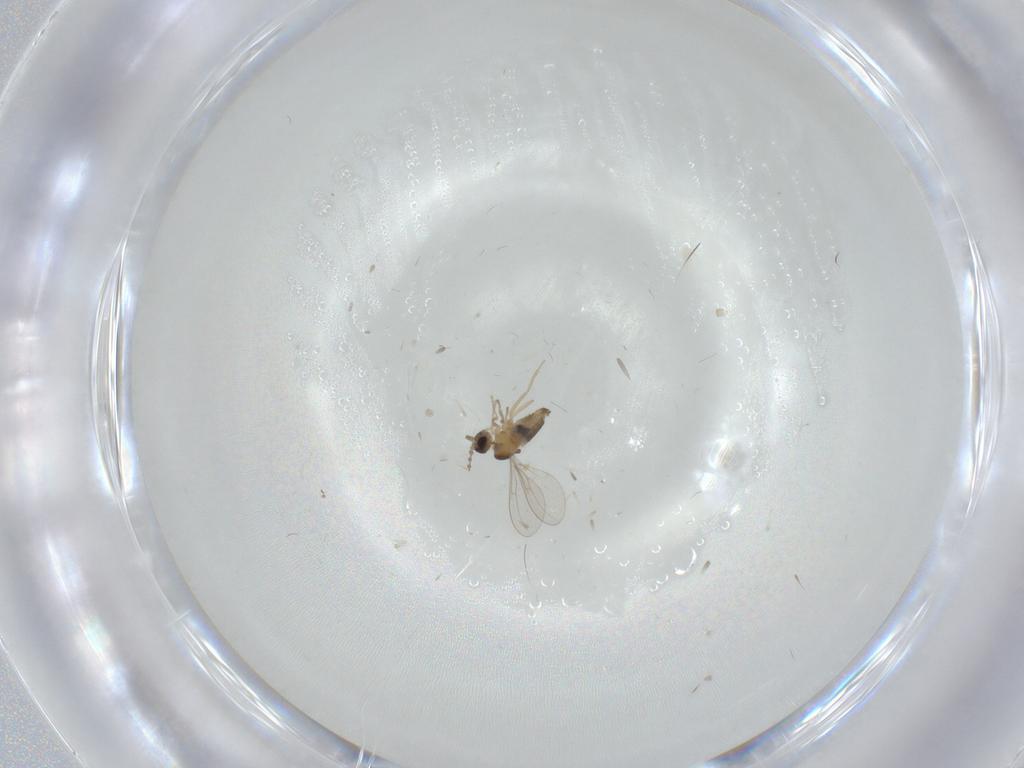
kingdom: Animalia
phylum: Arthropoda
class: Insecta
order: Diptera
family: Cecidomyiidae
